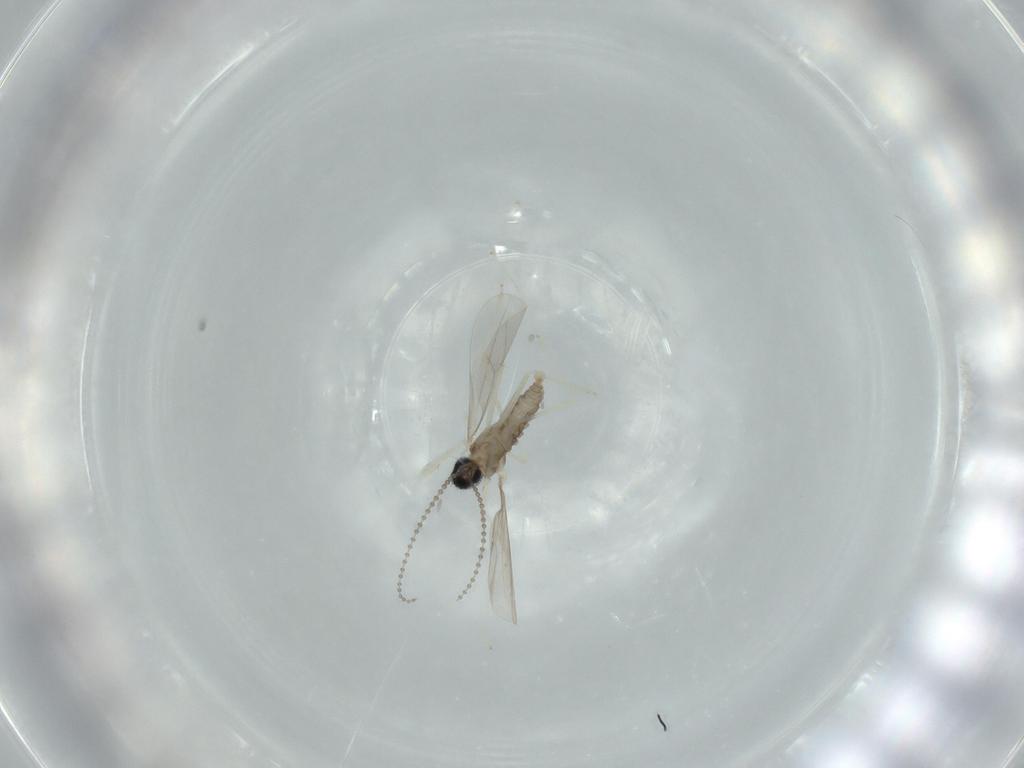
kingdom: Animalia
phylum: Arthropoda
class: Insecta
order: Diptera
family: Cecidomyiidae
